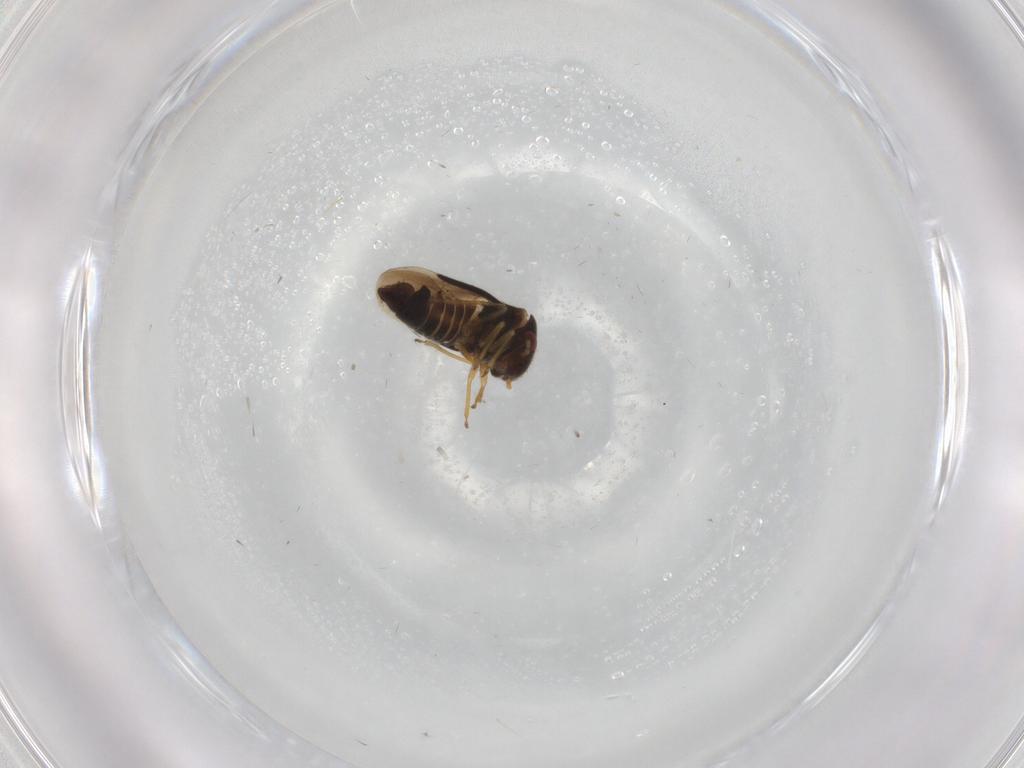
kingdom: Animalia
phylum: Arthropoda
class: Insecta
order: Hemiptera
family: Schizopteridae
